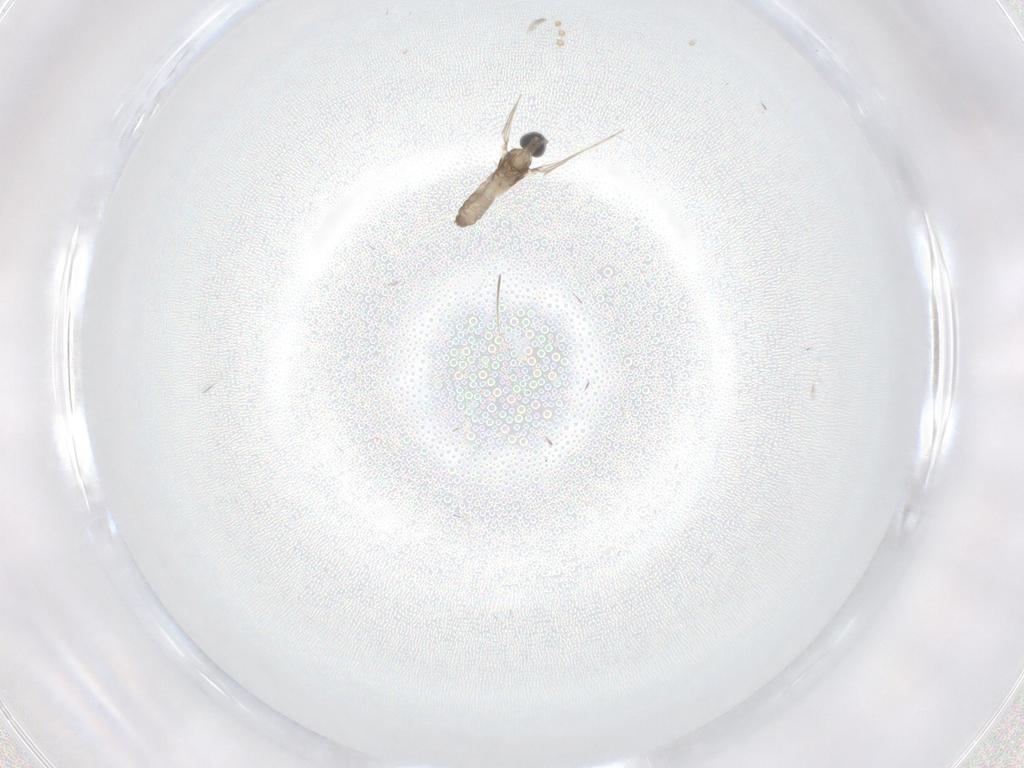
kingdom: Animalia
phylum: Arthropoda
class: Insecta
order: Diptera
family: Cecidomyiidae
